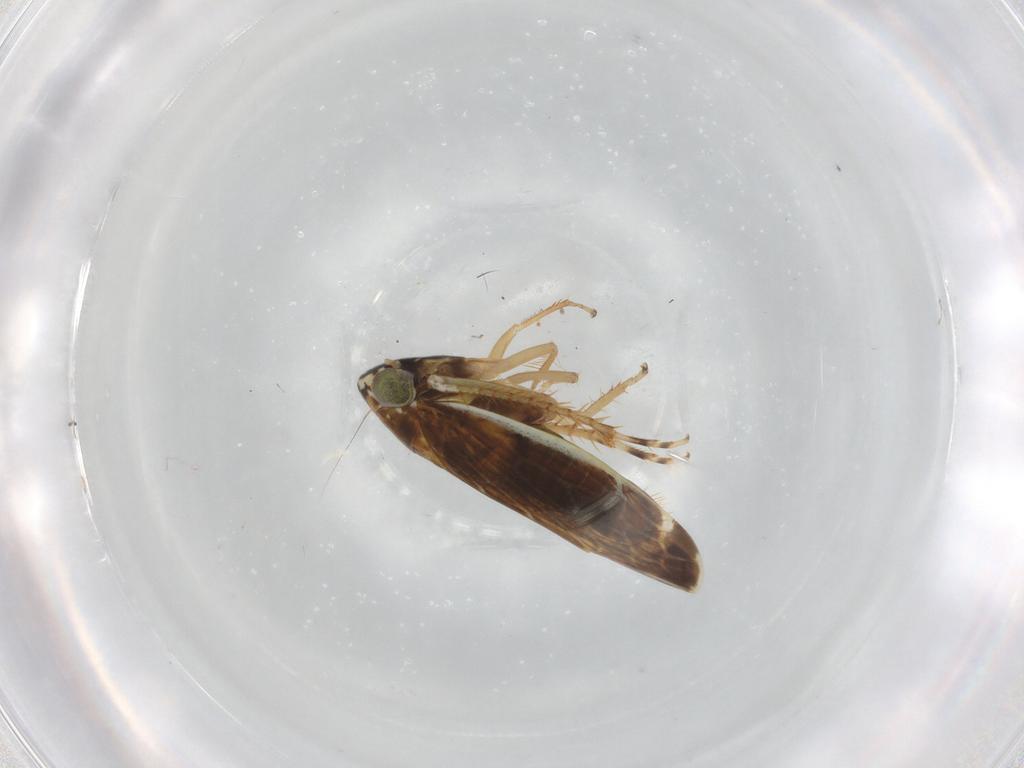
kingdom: Animalia
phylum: Arthropoda
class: Insecta
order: Hemiptera
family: Cicadellidae
